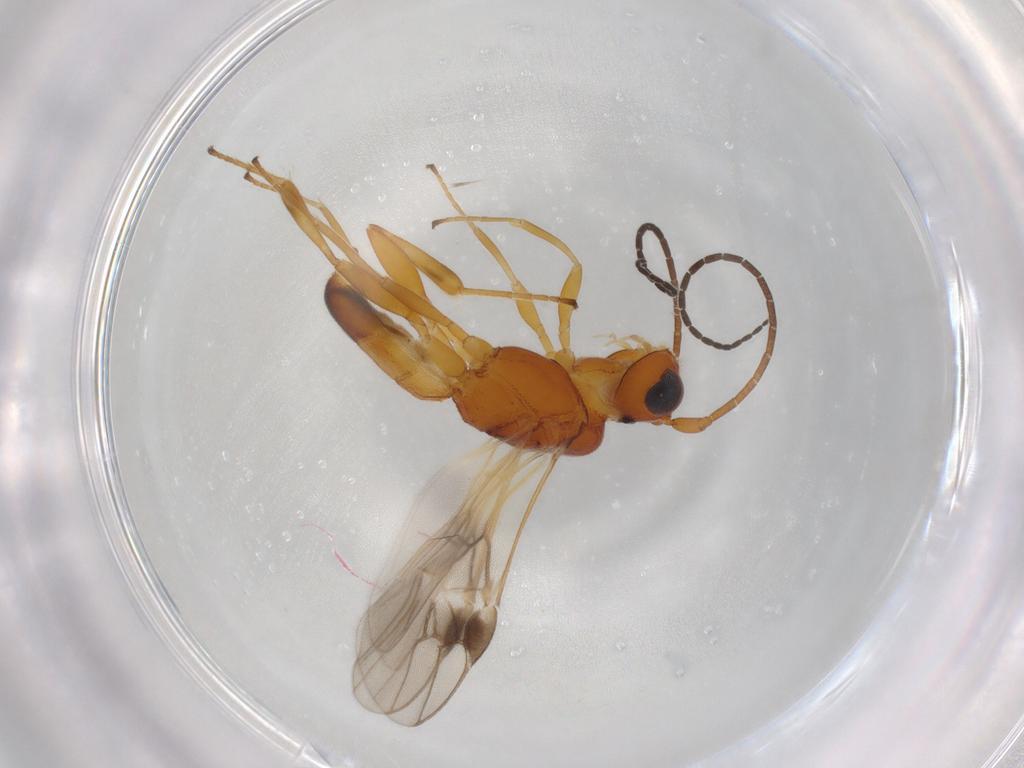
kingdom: Animalia
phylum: Arthropoda
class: Insecta
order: Hymenoptera
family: Braconidae
